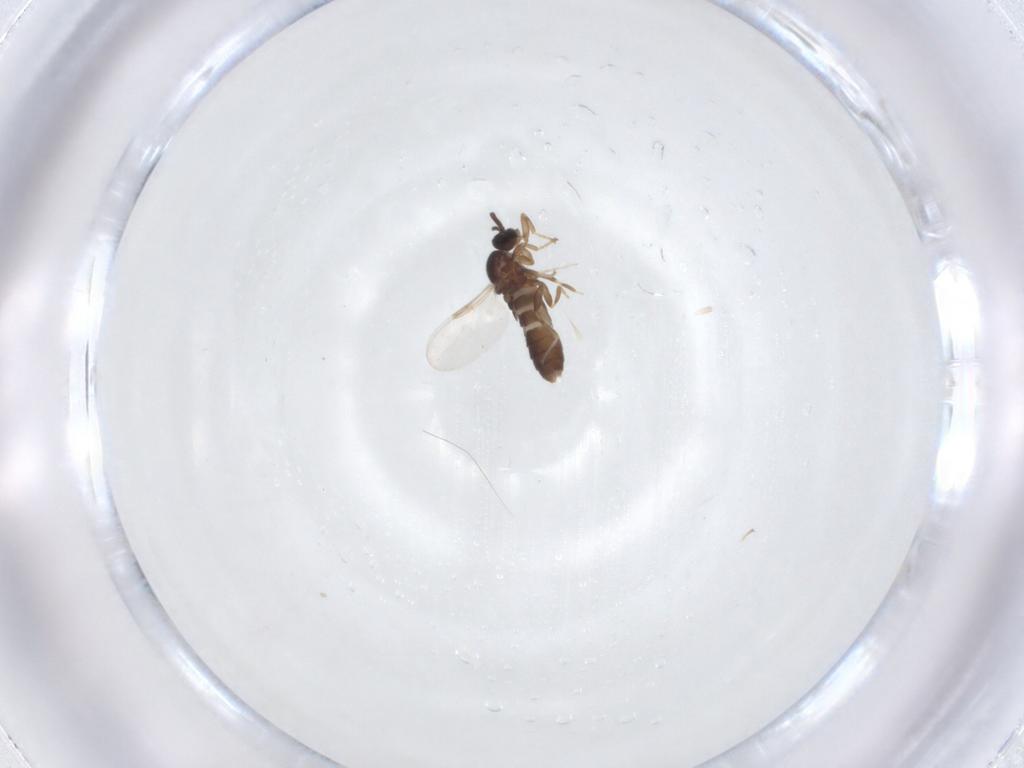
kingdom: Animalia
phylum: Arthropoda
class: Insecta
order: Diptera
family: Scatopsidae
